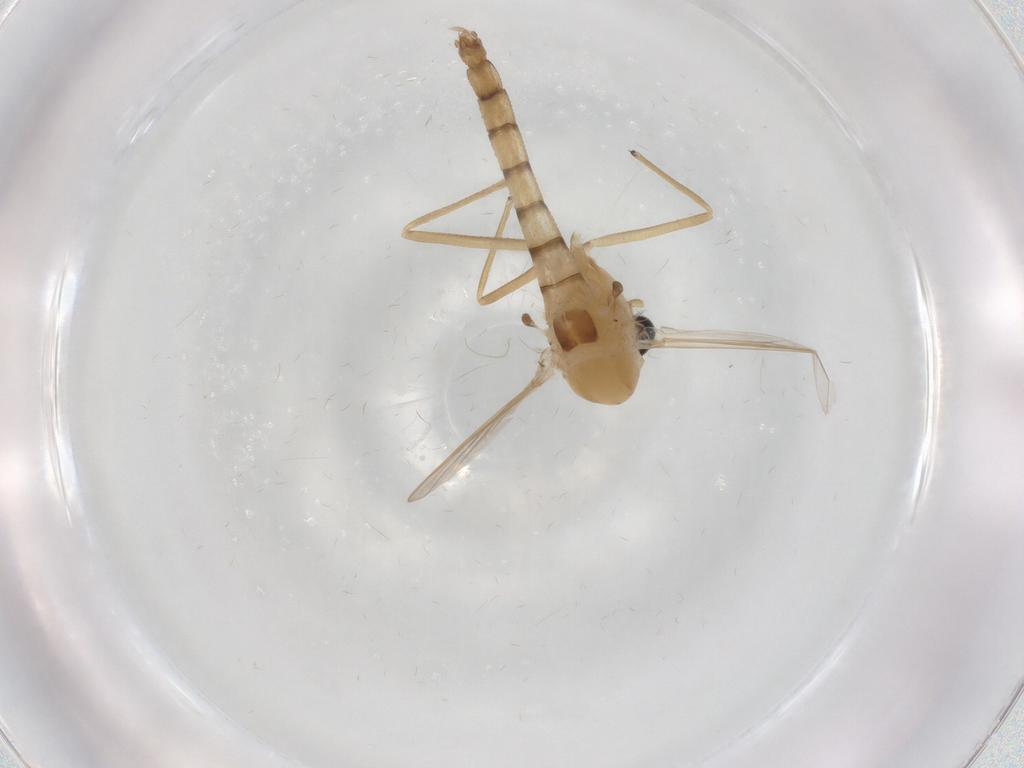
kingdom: Animalia
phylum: Arthropoda
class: Insecta
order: Diptera
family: Chironomidae
